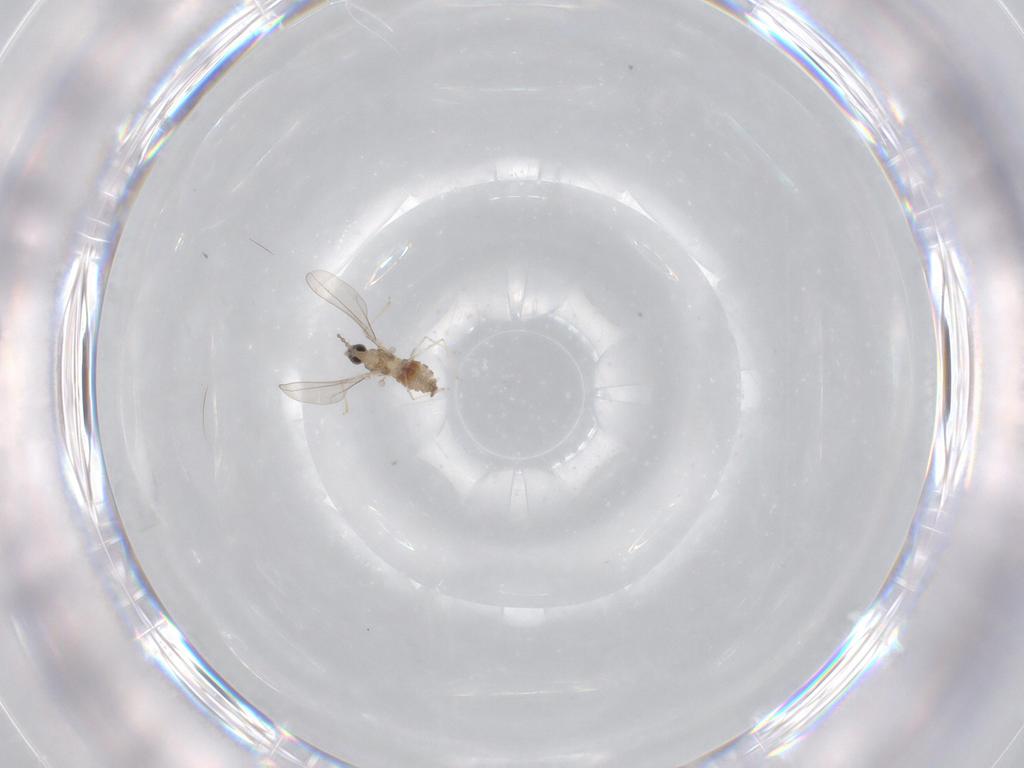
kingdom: Animalia
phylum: Arthropoda
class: Insecta
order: Diptera
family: Cecidomyiidae
